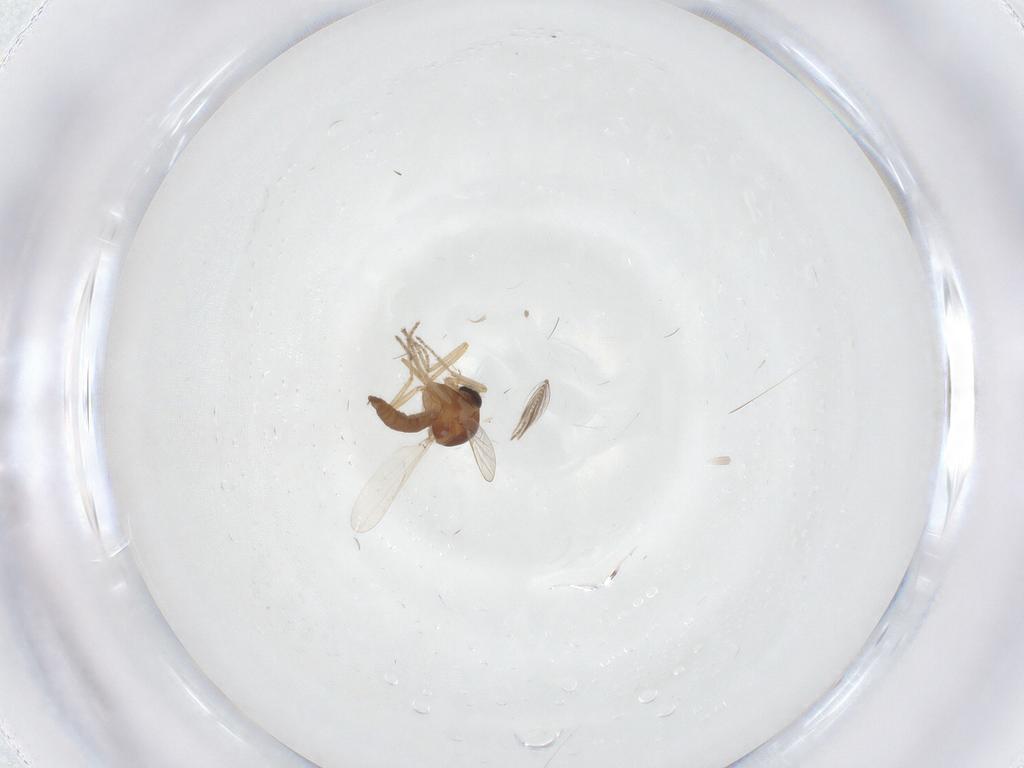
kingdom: Animalia
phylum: Arthropoda
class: Insecta
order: Diptera
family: Ceratopogonidae
